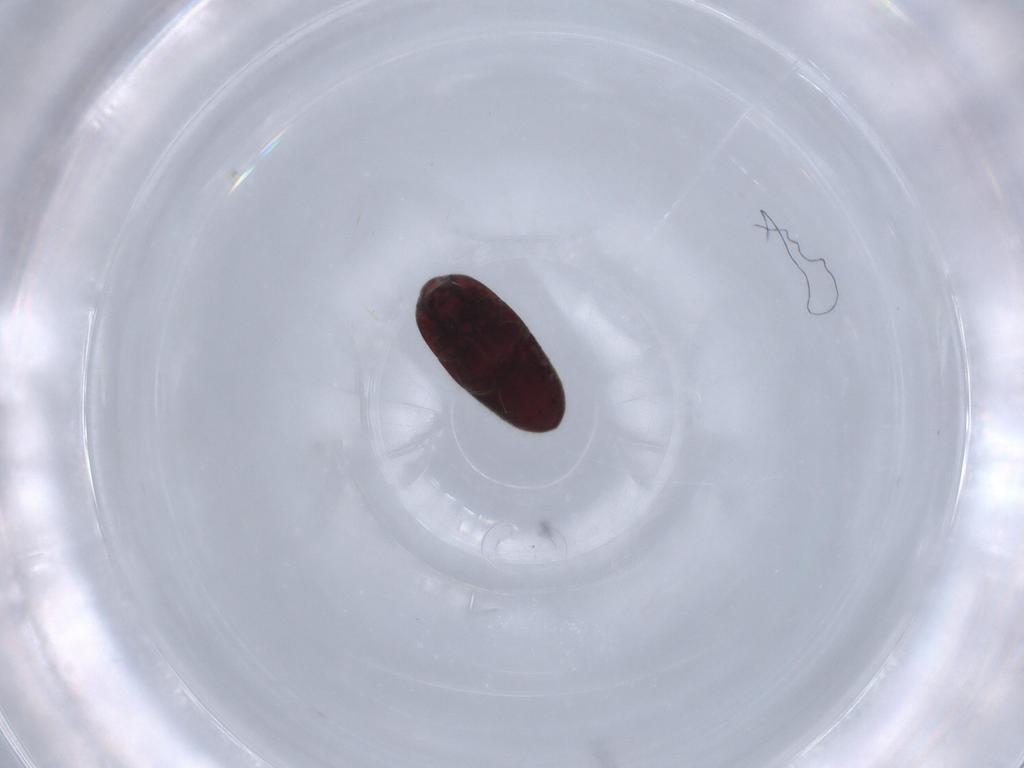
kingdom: Animalia
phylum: Arthropoda
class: Insecta
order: Coleoptera
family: Throscidae
